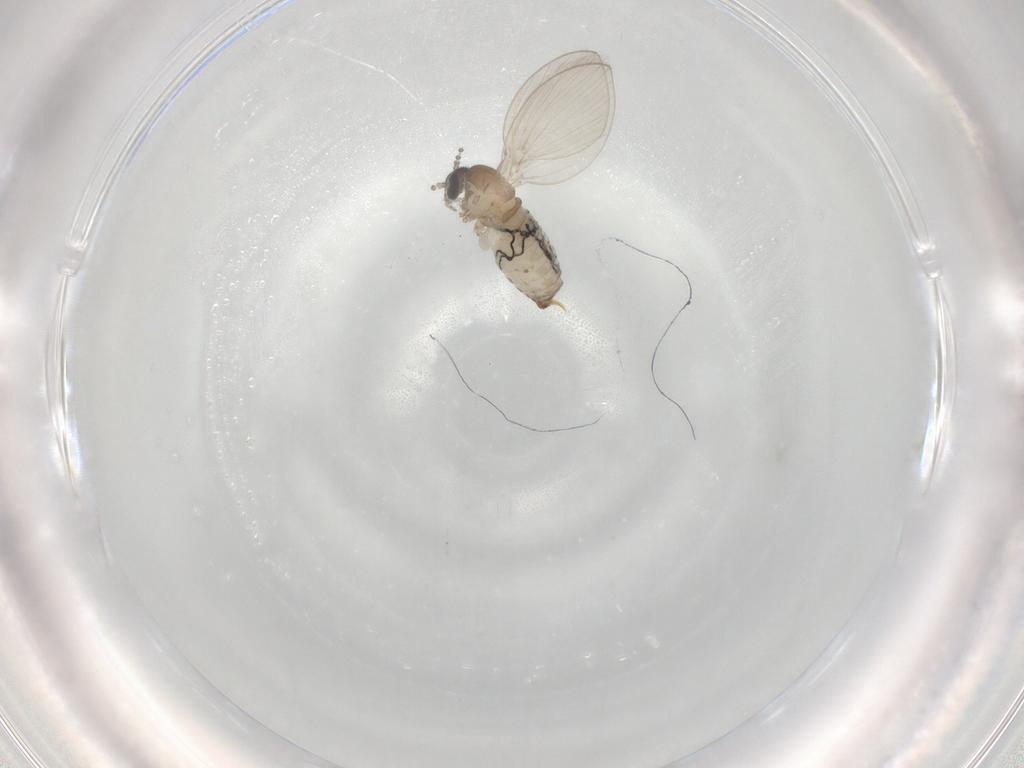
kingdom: Animalia
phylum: Arthropoda
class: Insecta
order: Diptera
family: Psychodidae
